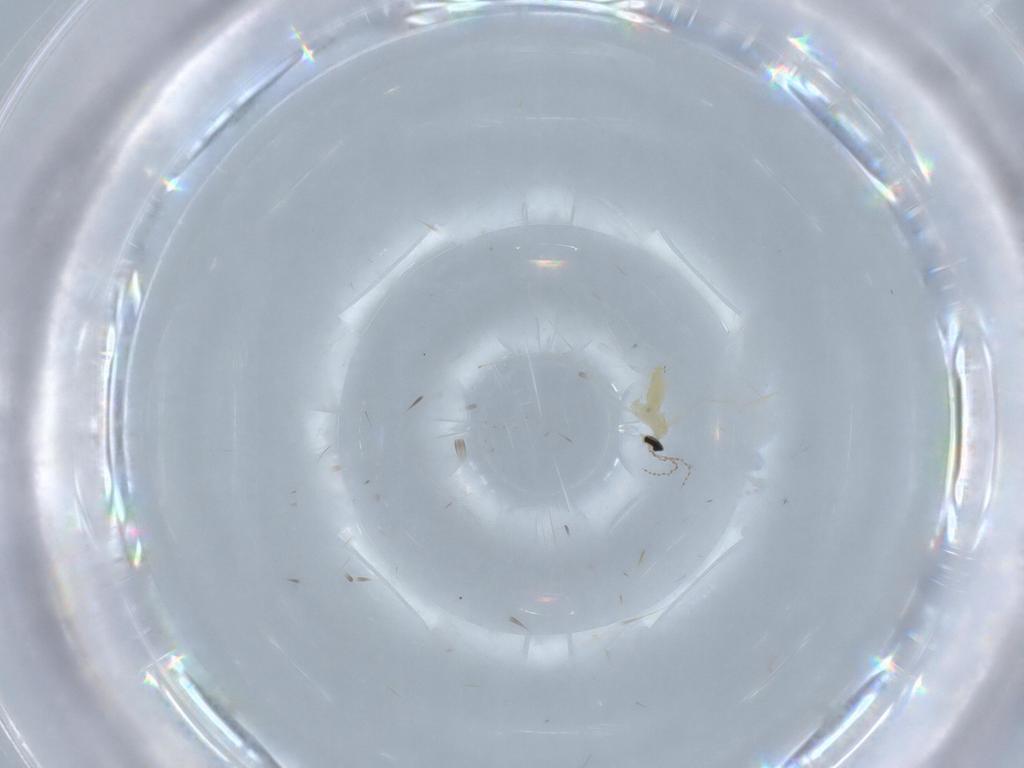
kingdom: Animalia
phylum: Arthropoda
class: Insecta
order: Diptera
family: Cecidomyiidae
